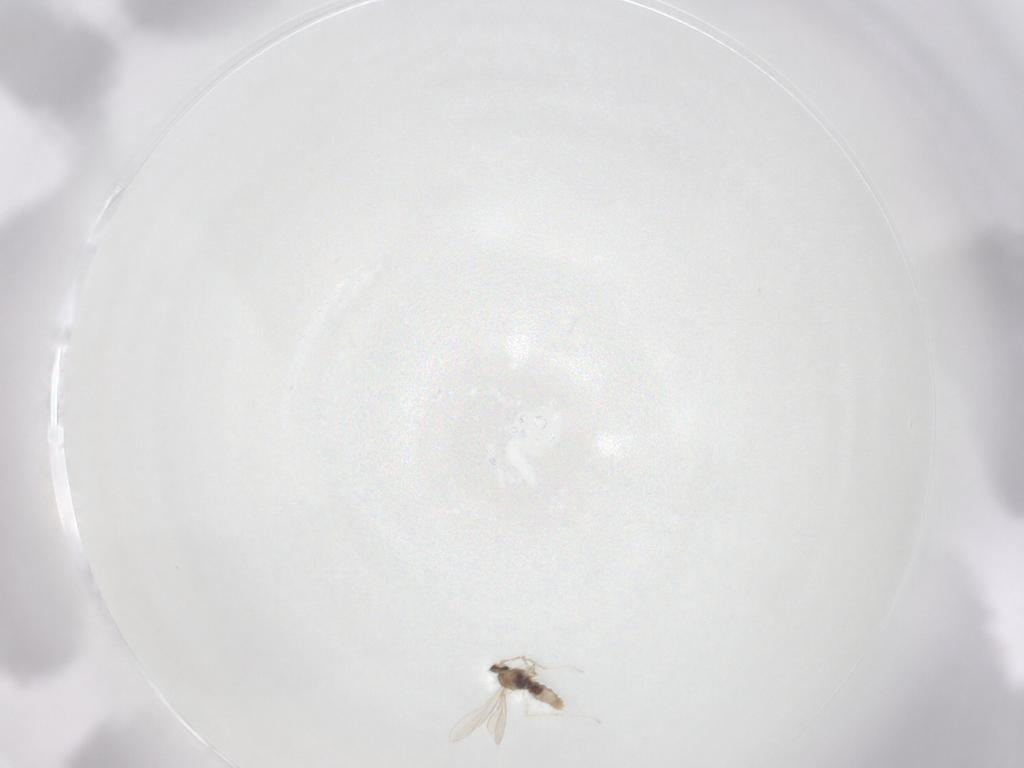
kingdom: Animalia
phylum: Arthropoda
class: Insecta
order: Diptera
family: Cecidomyiidae
